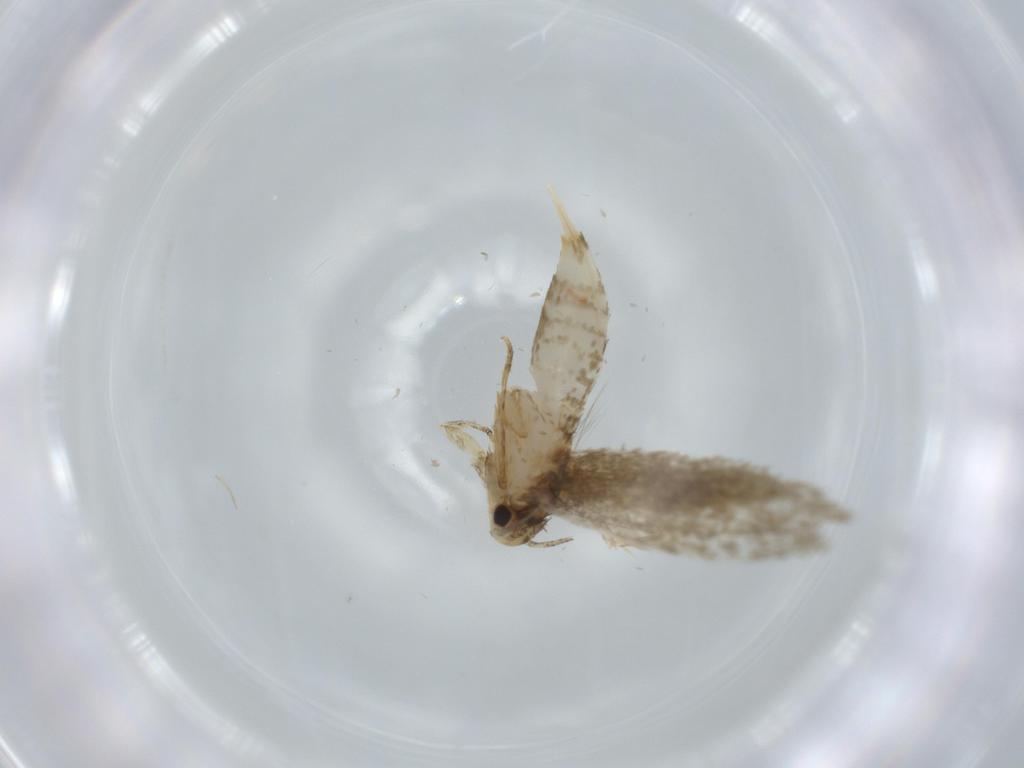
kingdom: Animalia
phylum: Arthropoda
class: Insecta
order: Lepidoptera
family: Tineidae
